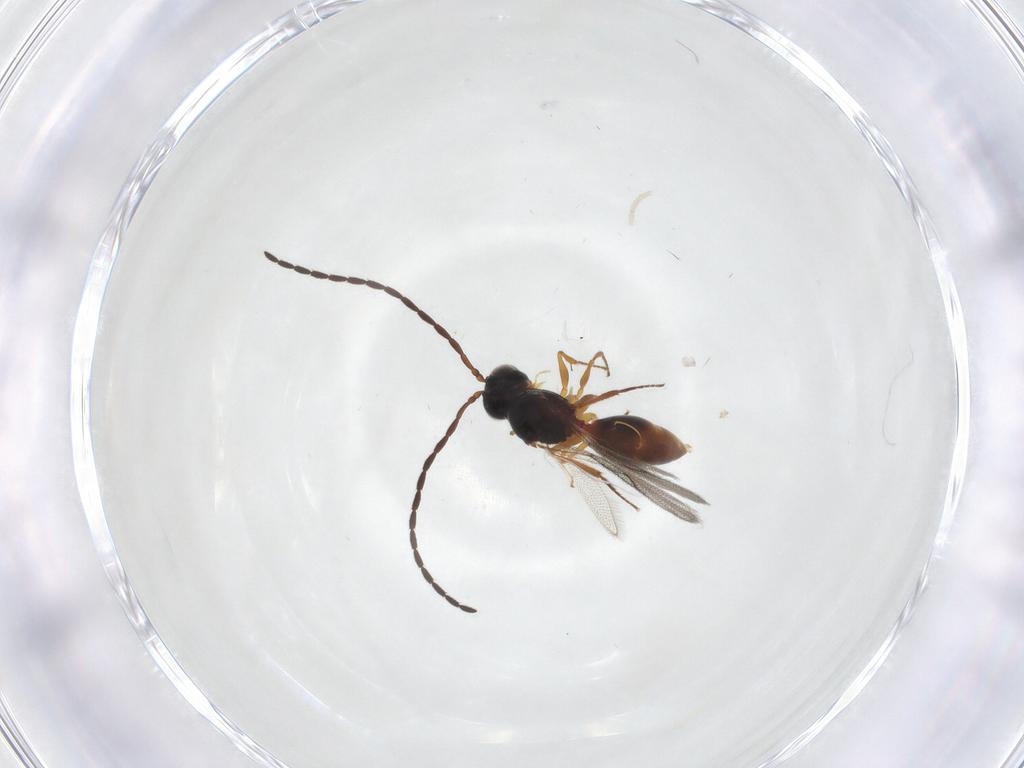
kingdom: Animalia
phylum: Arthropoda
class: Insecta
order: Hymenoptera
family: Figitidae
